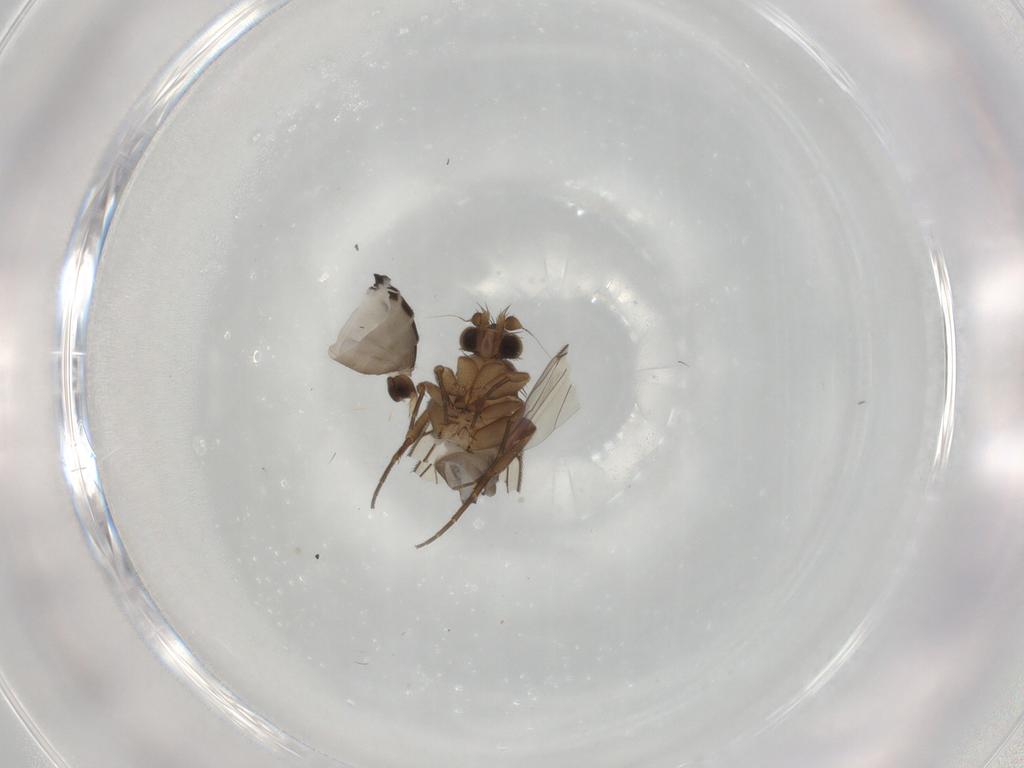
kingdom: Animalia
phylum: Arthropoda
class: Insecta
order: Diptera
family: Phoridae
